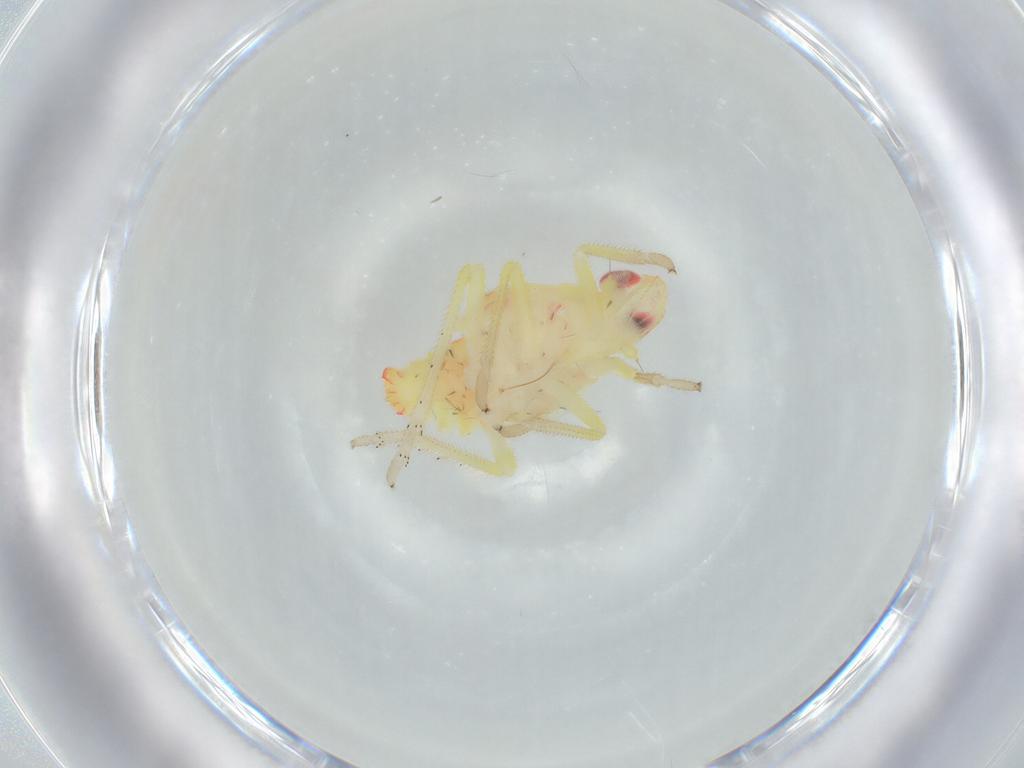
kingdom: Animalia
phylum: Arthropoda
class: Insecta
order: Hemiptera
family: Tropiduchidae
